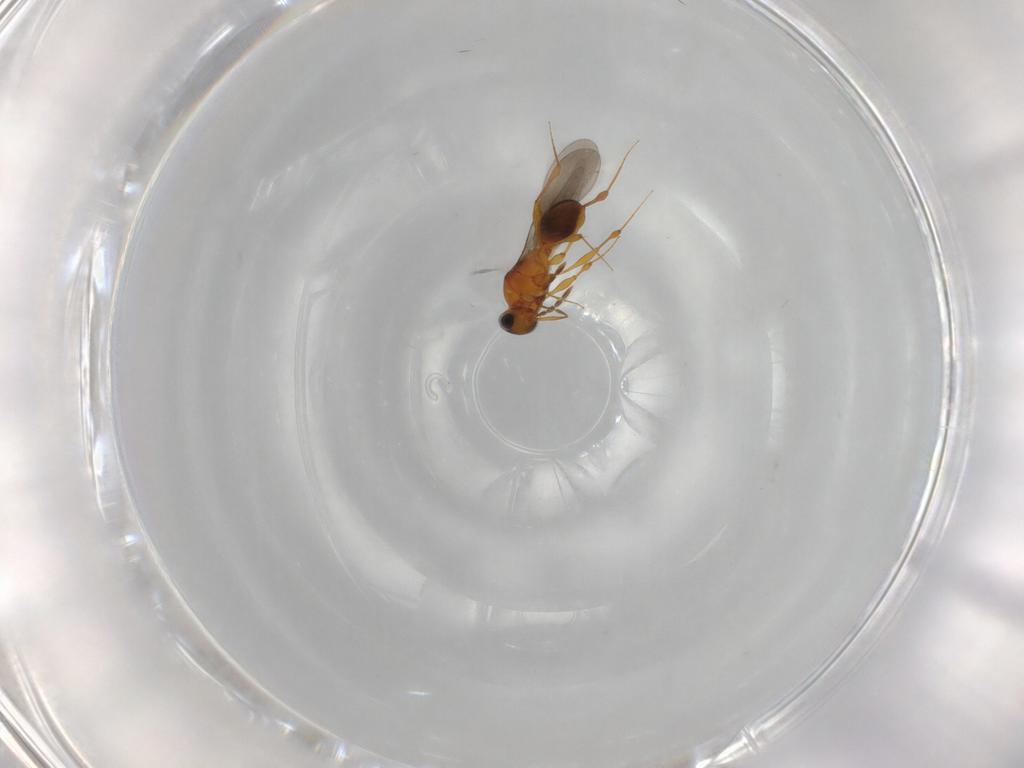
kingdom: Animalia
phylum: Arthropoda
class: Insecta
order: Hymenoptera
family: Platygastridae
